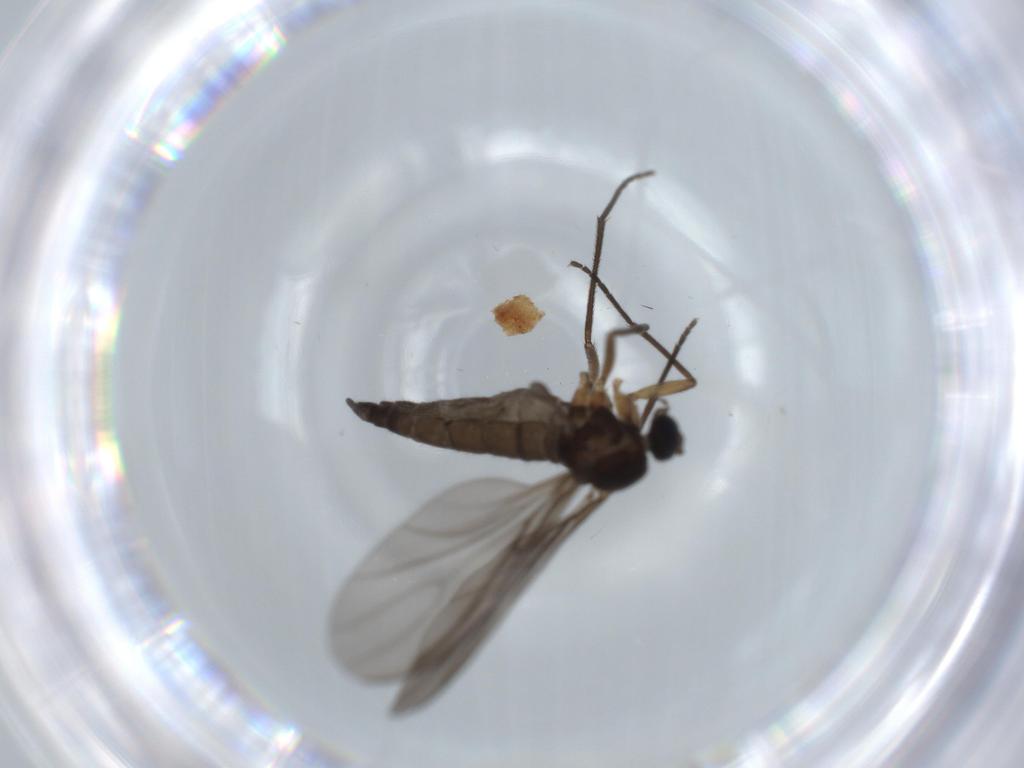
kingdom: Animalia
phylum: Arthropoda
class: Insecta
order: Diptera
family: Sciaridae
